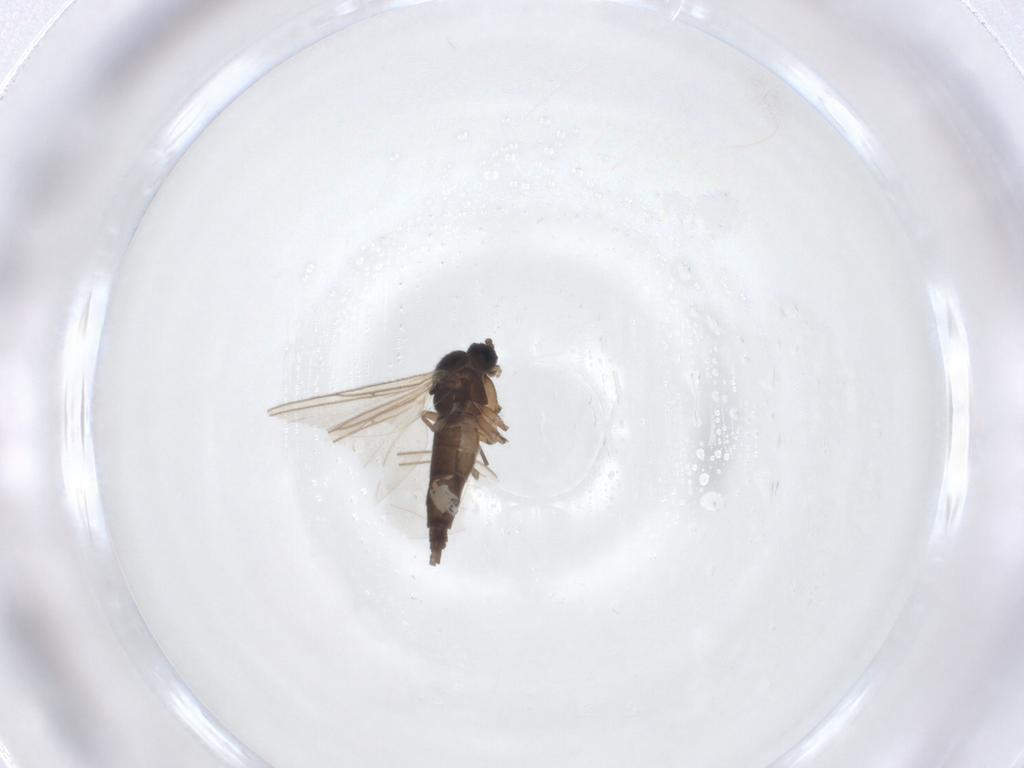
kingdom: Animalia
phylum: Arthropoda
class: Insecta
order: Diptera
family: Sciaridae
